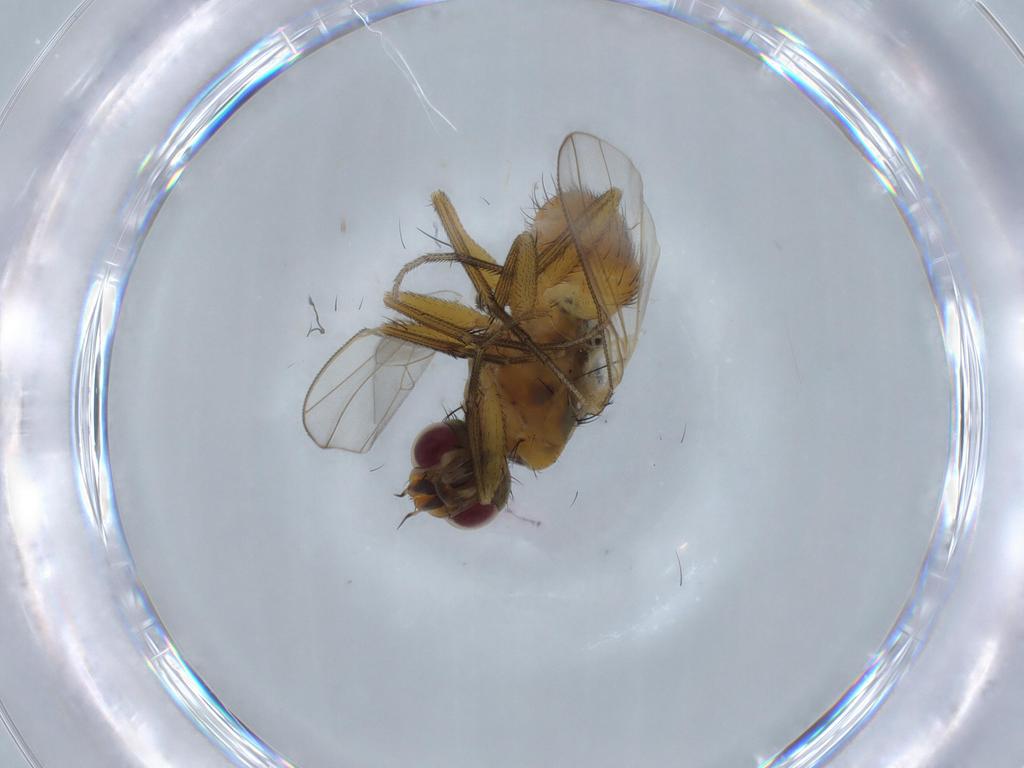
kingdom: Animalia
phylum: Arthropoda
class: Insecta
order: Diptera
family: Muscidae
